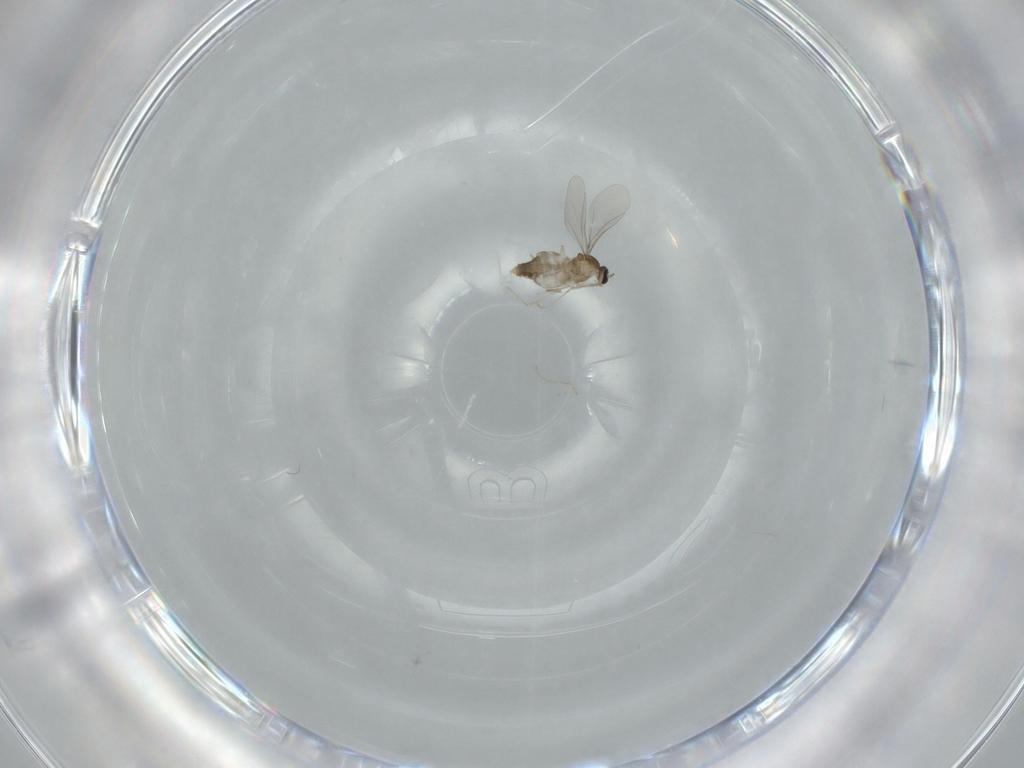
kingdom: Animalia
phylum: Arthropoda
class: Insecta
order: Diptera
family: Cecidomyiidae
